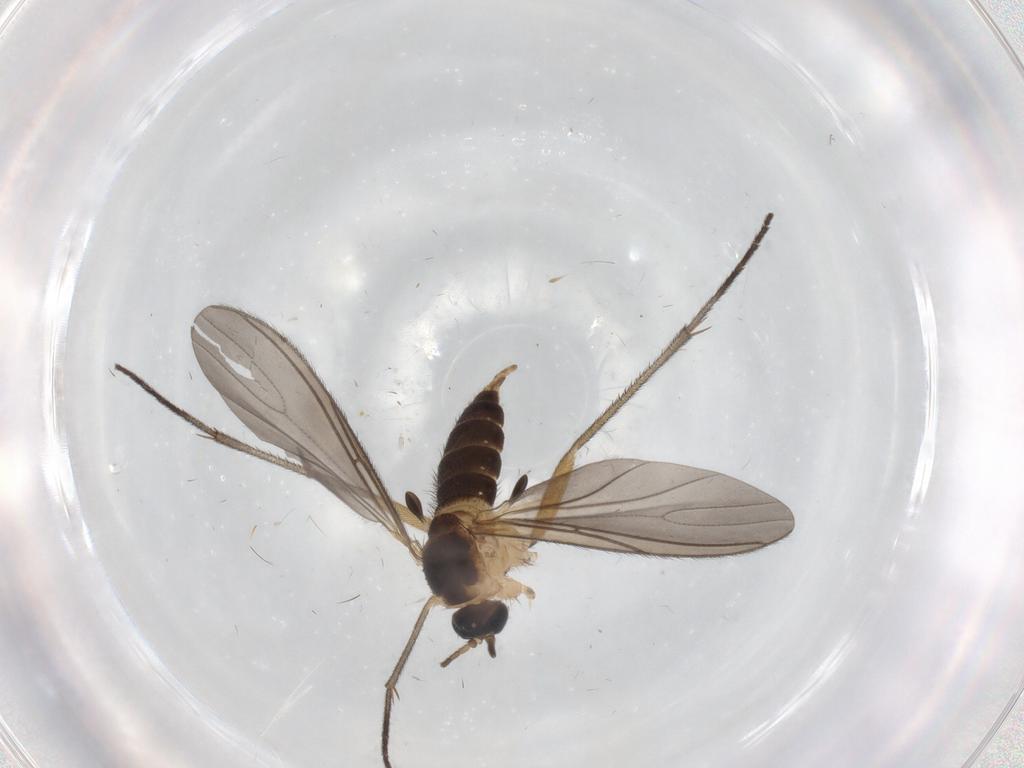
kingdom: Animalia
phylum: Arthropoda
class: Insecta
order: Diptera
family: Sciaridae
